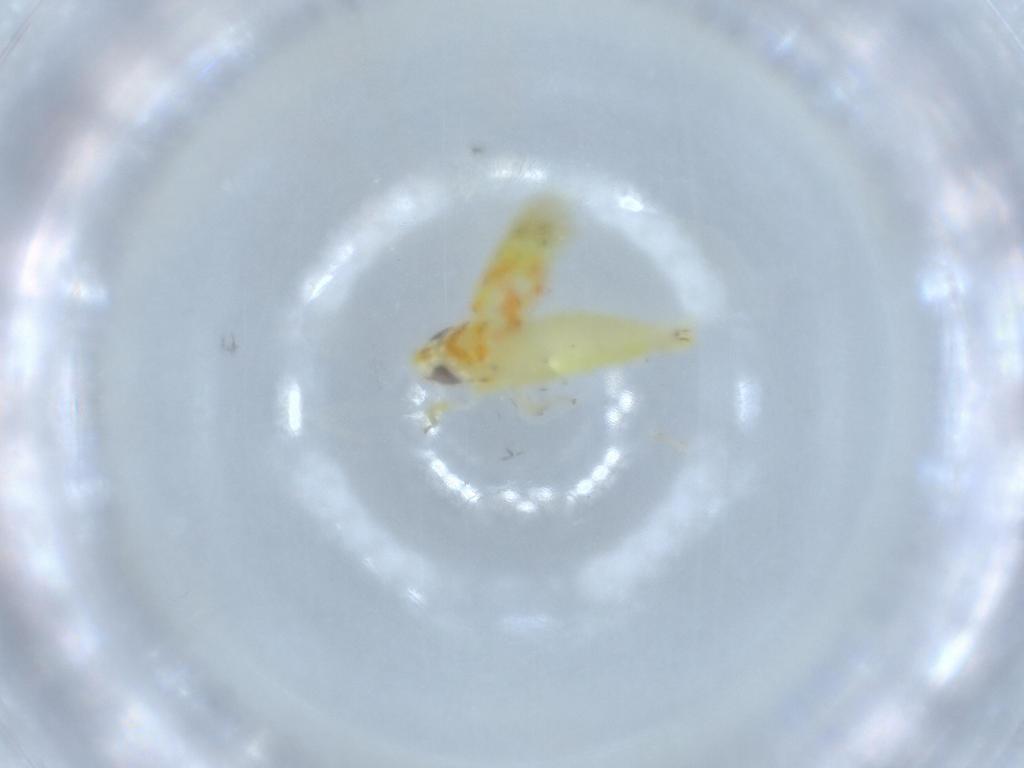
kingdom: Animalia
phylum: Arthropoda
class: Insecta
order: Hemiptera
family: Cicadellidae
